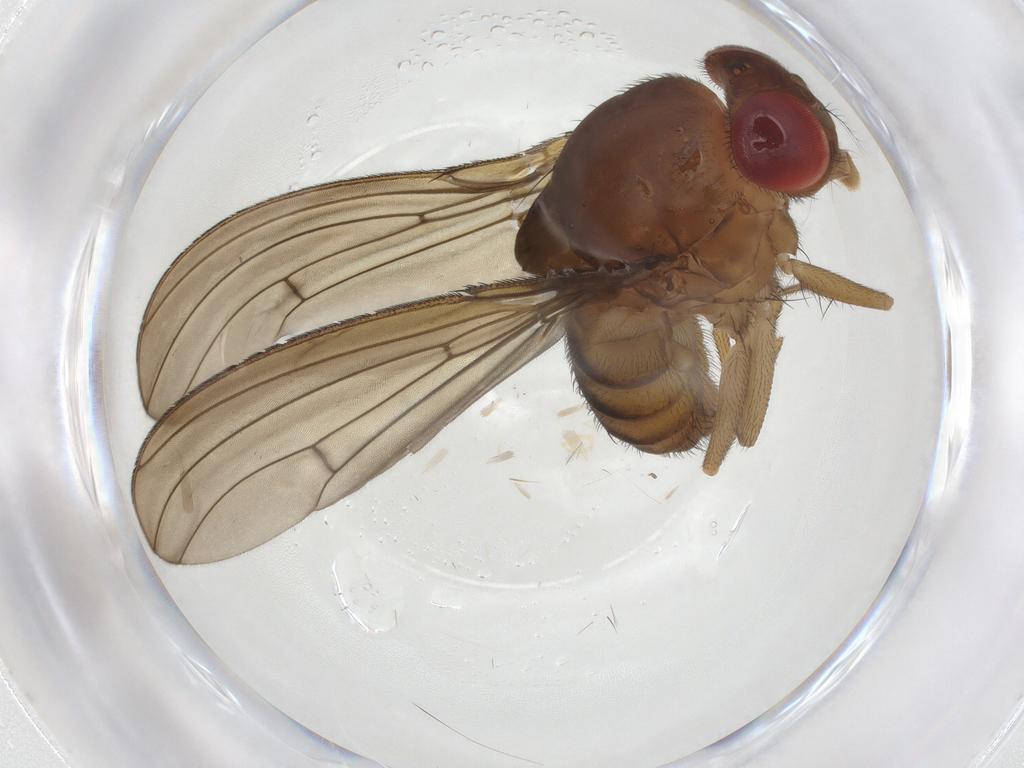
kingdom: Animalia
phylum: Arthropoda
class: Insecta
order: Diptera
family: Drosophilidae
